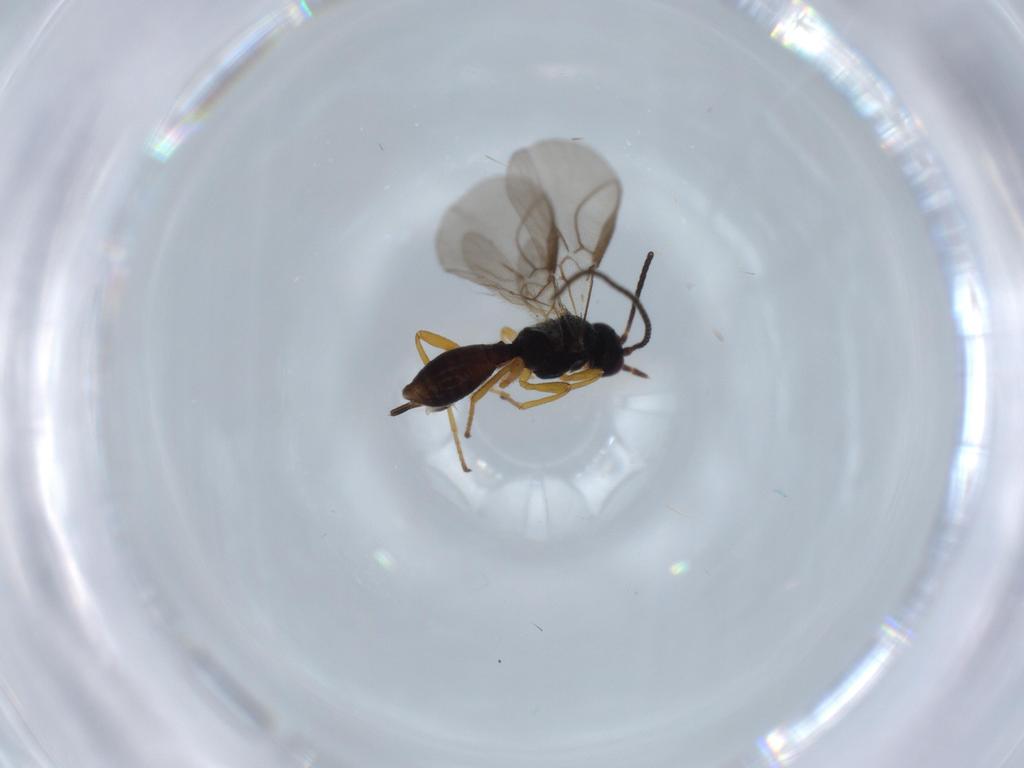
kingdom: Animalia
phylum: Arthropoda
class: Insecta
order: Hymenoptera
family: Braconidae
